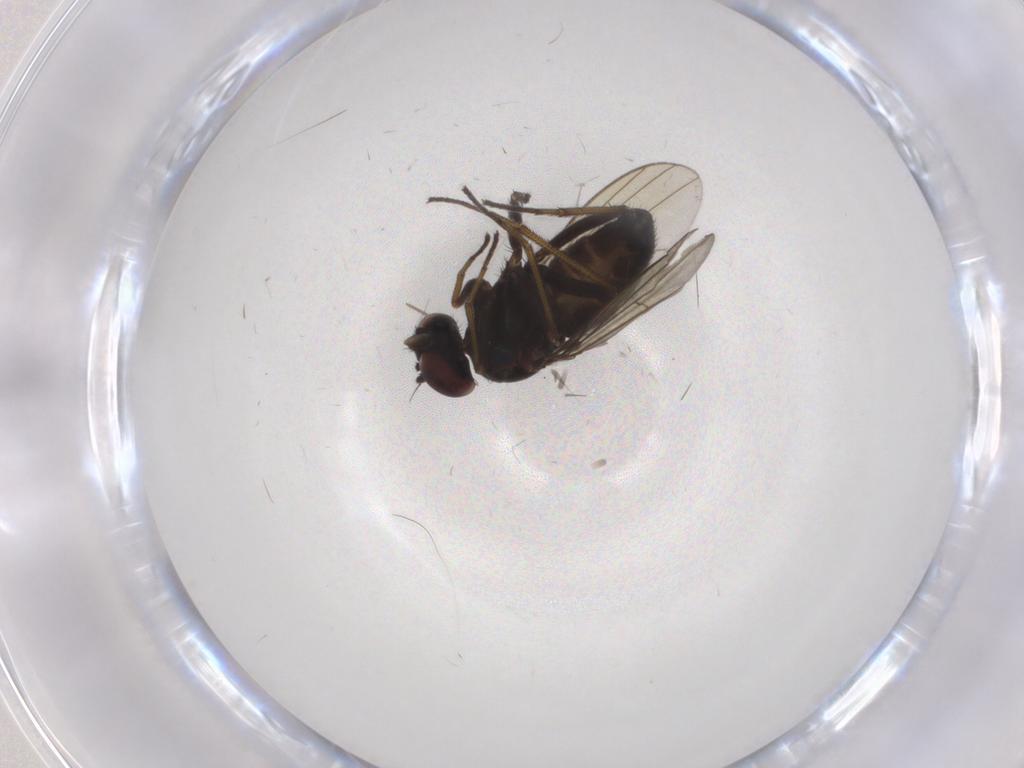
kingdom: Animalia
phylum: Arthropoda
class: Insecta
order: Diptera
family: Dolichopodidae
